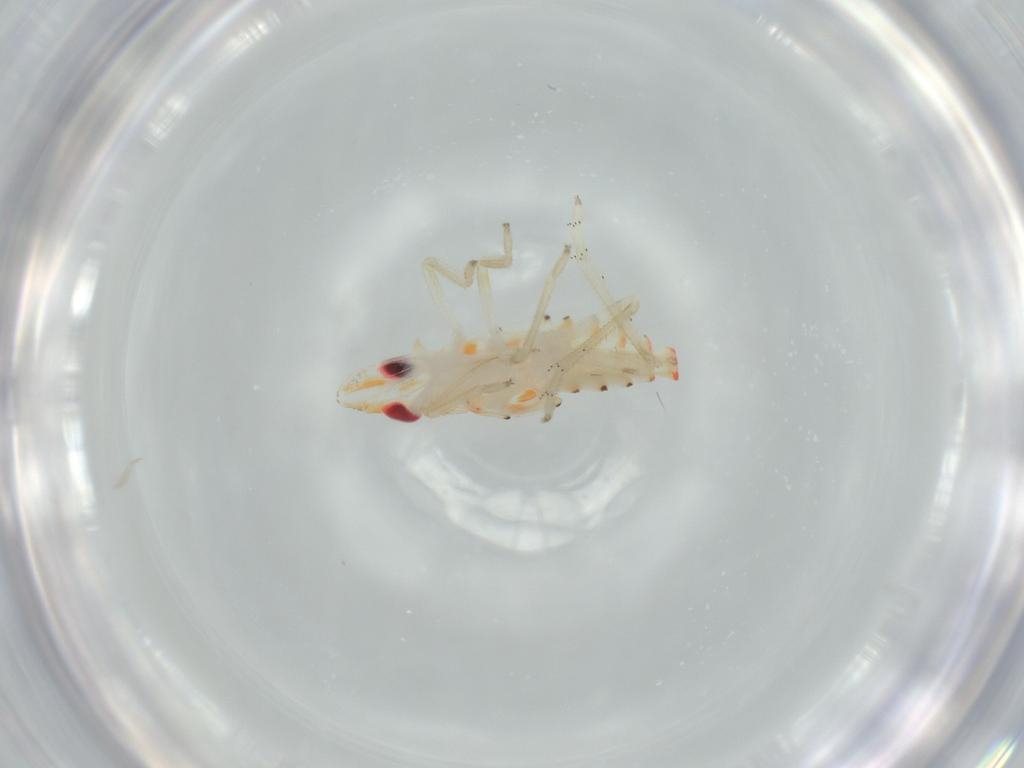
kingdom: Animalia
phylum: Arthropoda
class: Insecta
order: Hemiptera
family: Tropiduchidae
